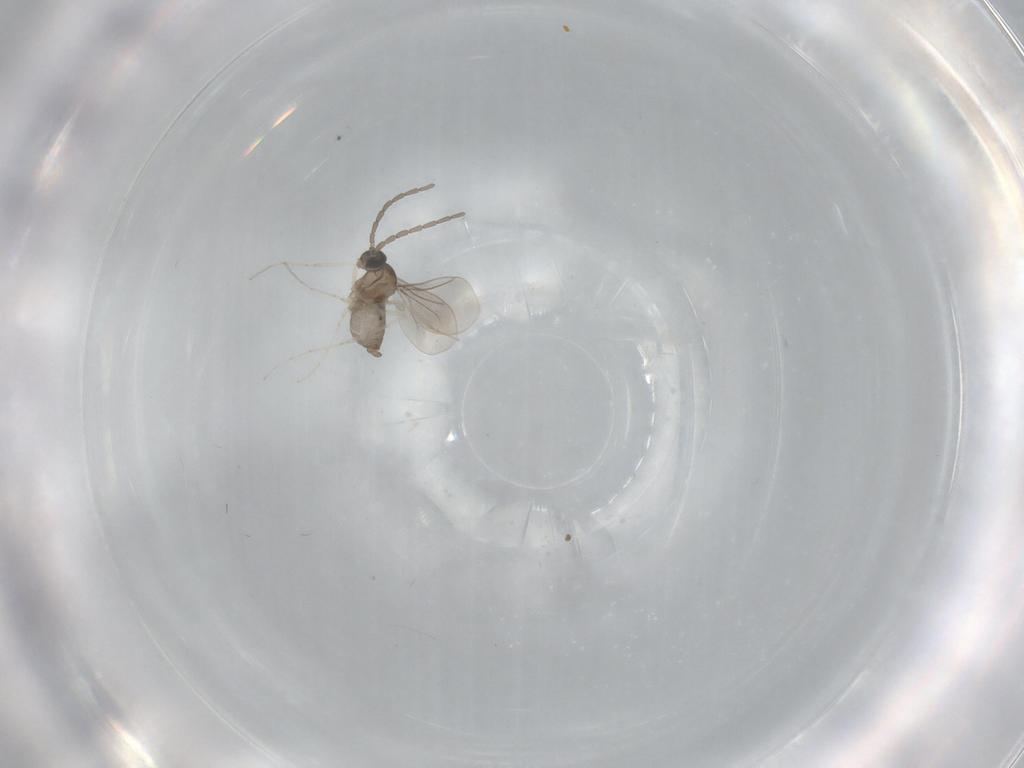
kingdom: Animalia
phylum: Arthropoda
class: Insecta
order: Diptera
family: Cecidomyiidae
